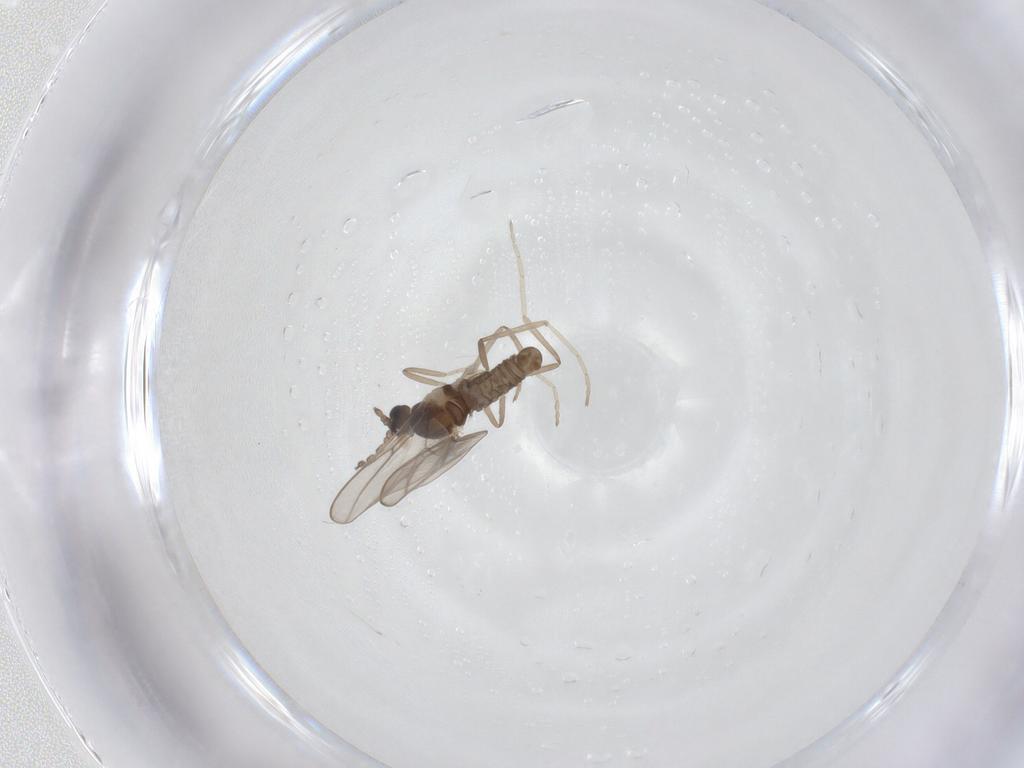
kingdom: Animalia
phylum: Arthropoda
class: Insecta
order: Diptera
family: Cecidomyiidae
